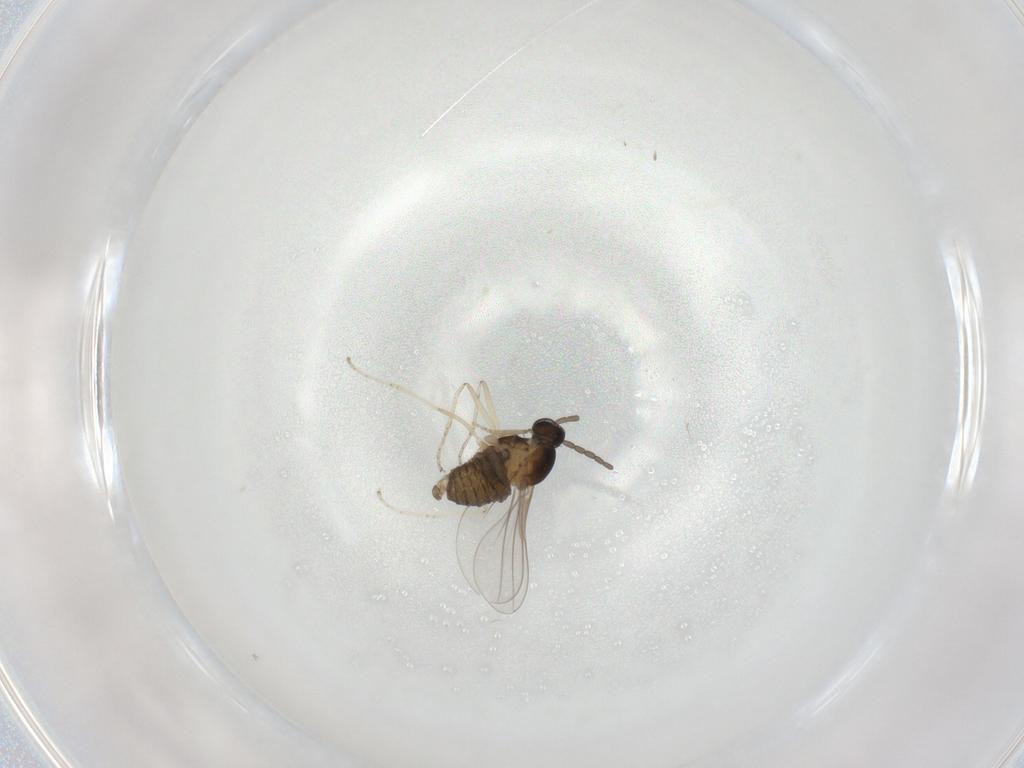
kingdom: Animalia
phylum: Arthropoda
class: Insecta
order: Diptera
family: Cecidomyiidae
